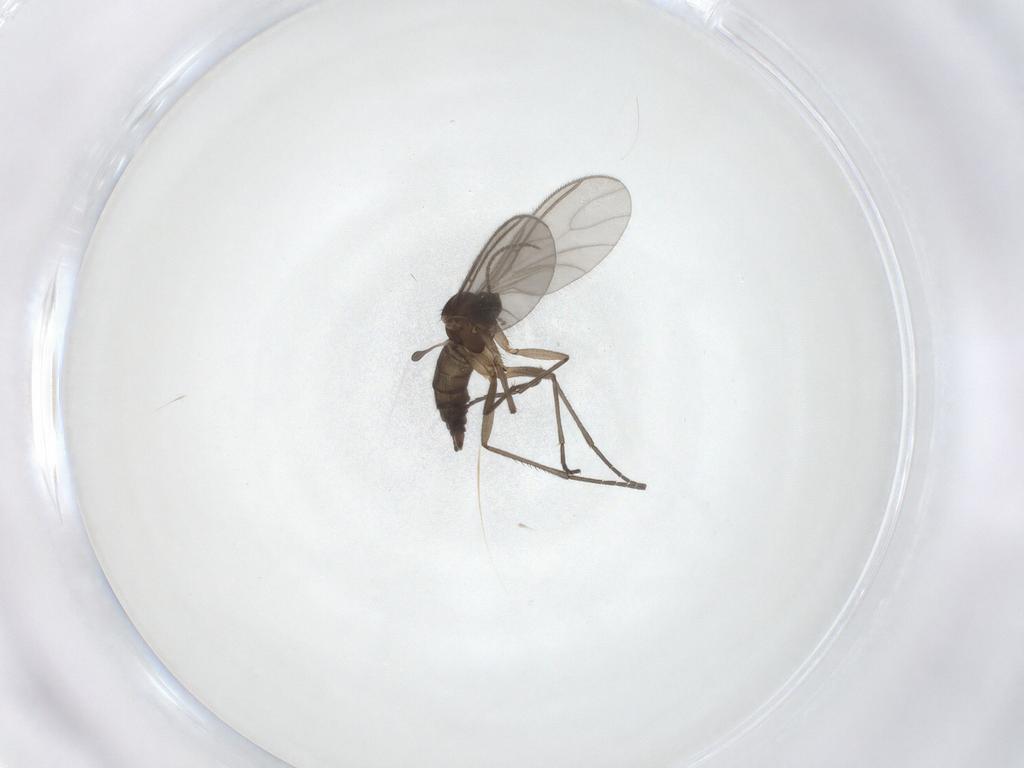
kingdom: Animalia
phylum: Arthropoda
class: Insecta
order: Diptera
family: Sciaridae
